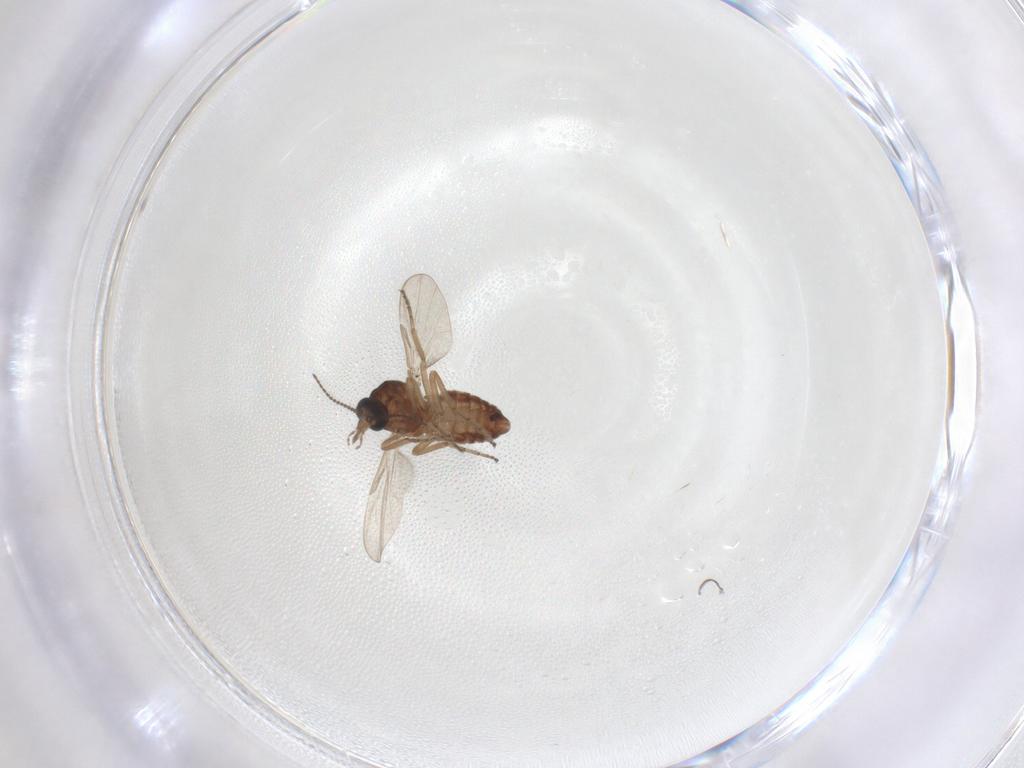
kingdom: Animalia
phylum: Arthropoda
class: Insecta
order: Diptera
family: Ceratopogonidae
